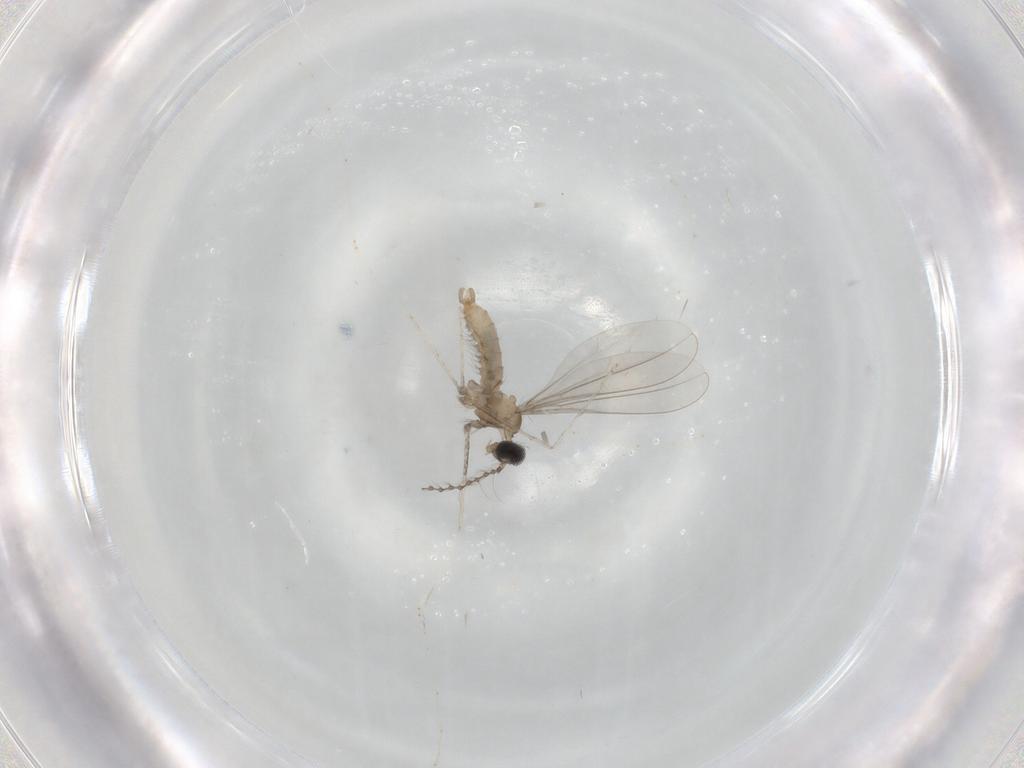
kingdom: Animalia
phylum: Arthropoda
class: Insecta
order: Diptera
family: Cecidomyiidae
